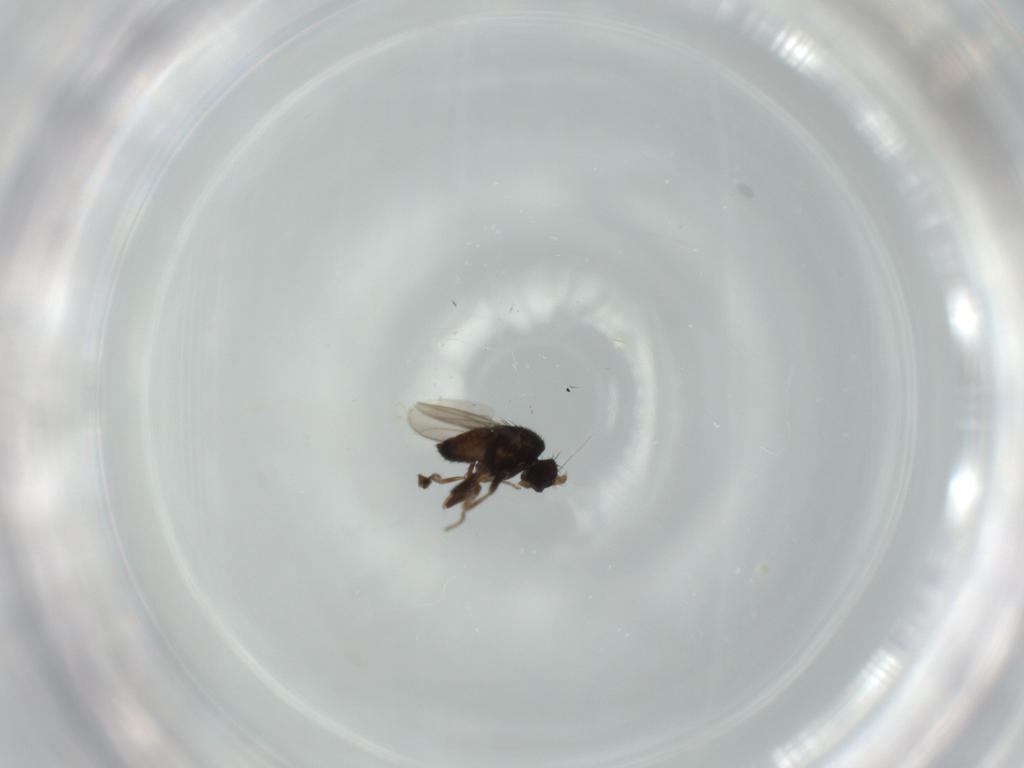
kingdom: Animalia
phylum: Arthropoda
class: Insecta
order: Diptera
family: Sphaeroceridae
